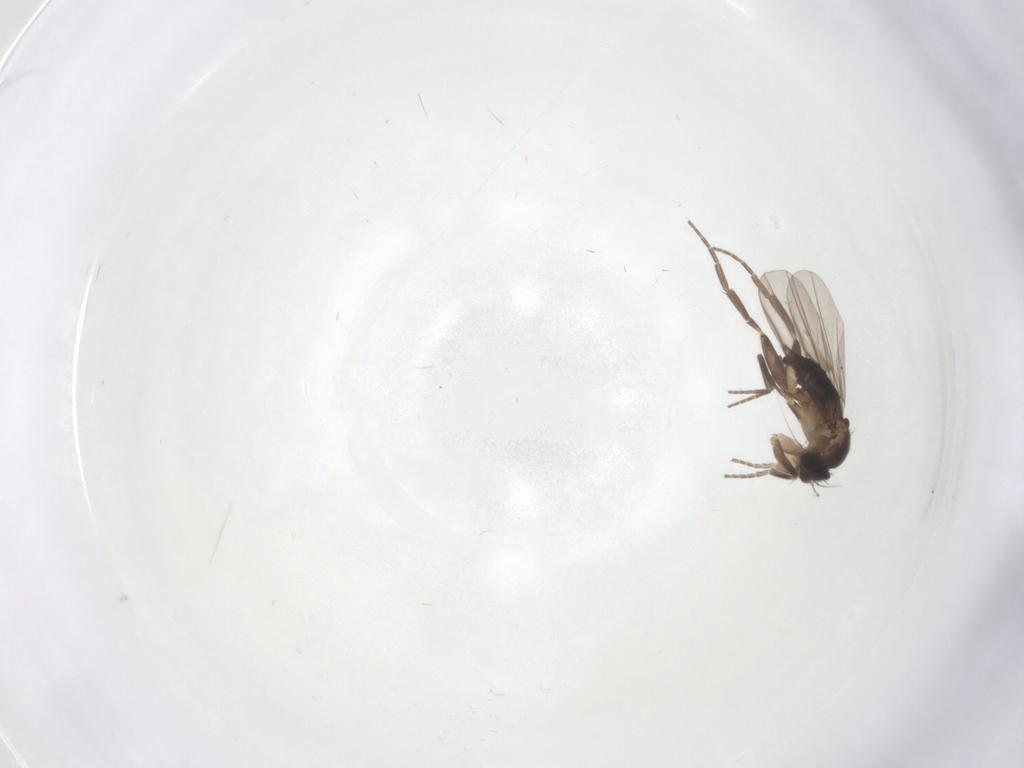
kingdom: Animalia
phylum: Arthropoda
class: Insecta
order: Diptera
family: Phoridae
